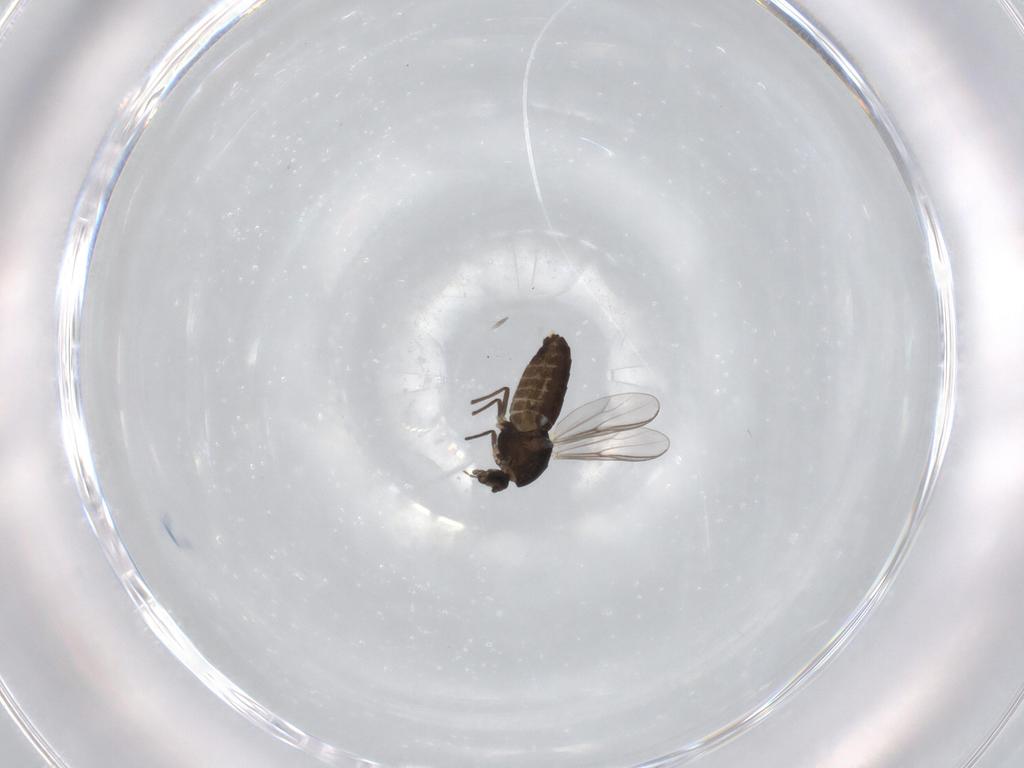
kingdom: Animalia
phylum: Arthropoda
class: Insecta
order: Diptera
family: Chironomidae
